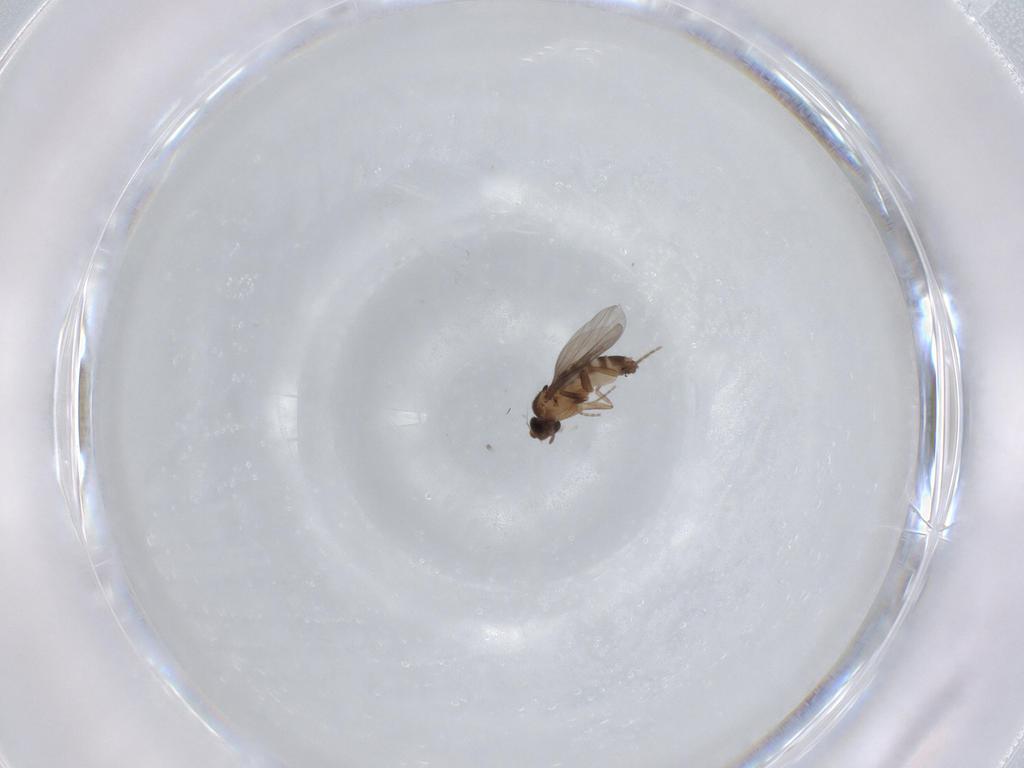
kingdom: Animalia
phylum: Arthropoda
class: Insecta
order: Diptera
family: Phoridae
